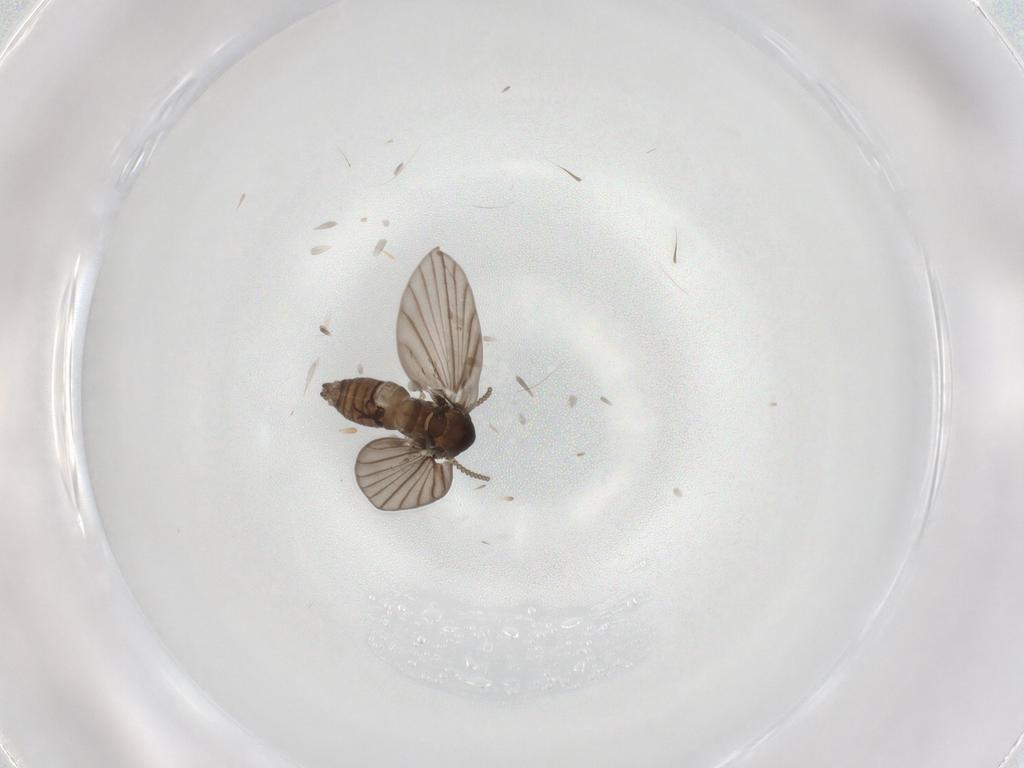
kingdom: Animalia
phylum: Arthropoda
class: Insecta
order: Diptera
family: Psychodidae
